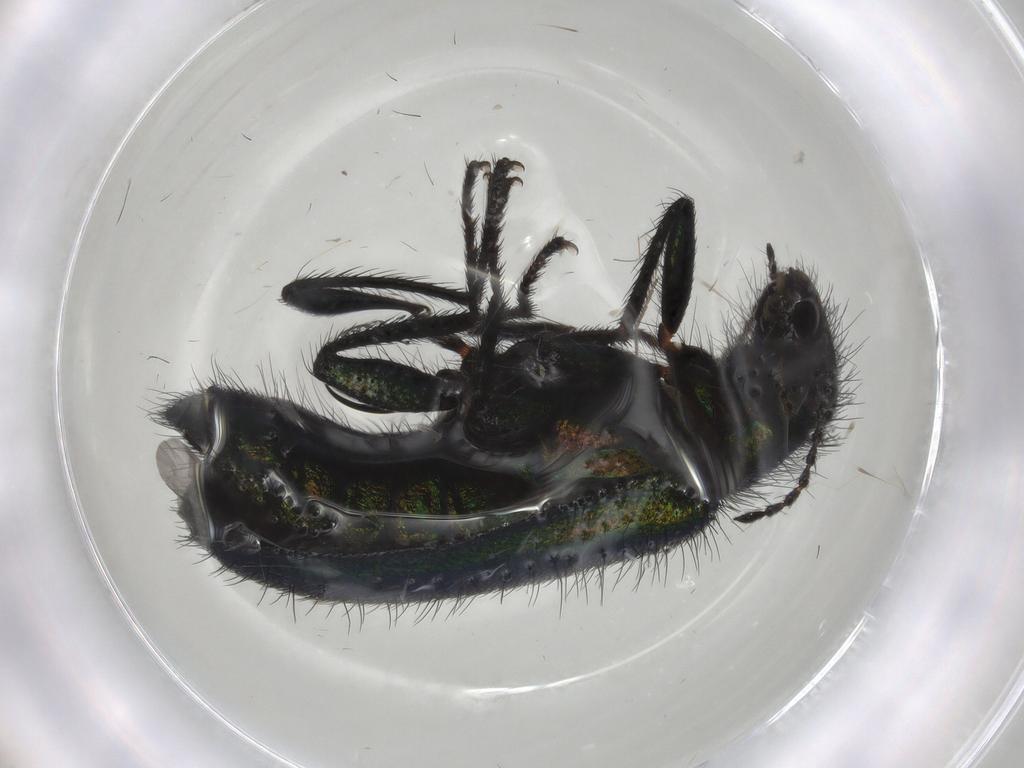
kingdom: Animalia
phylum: Arthropoda
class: Insecta
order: Coleoptera
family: Melyridae
